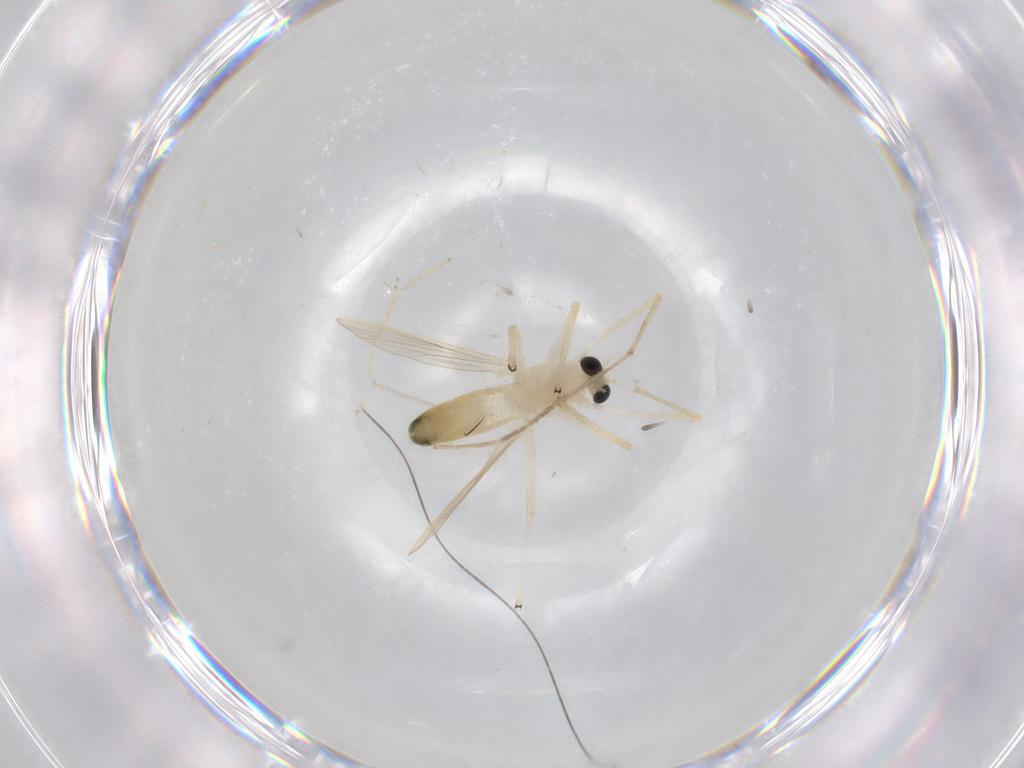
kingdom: Animalia
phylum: Arthropoda
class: Insecta
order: Diptera
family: Chironomidae
